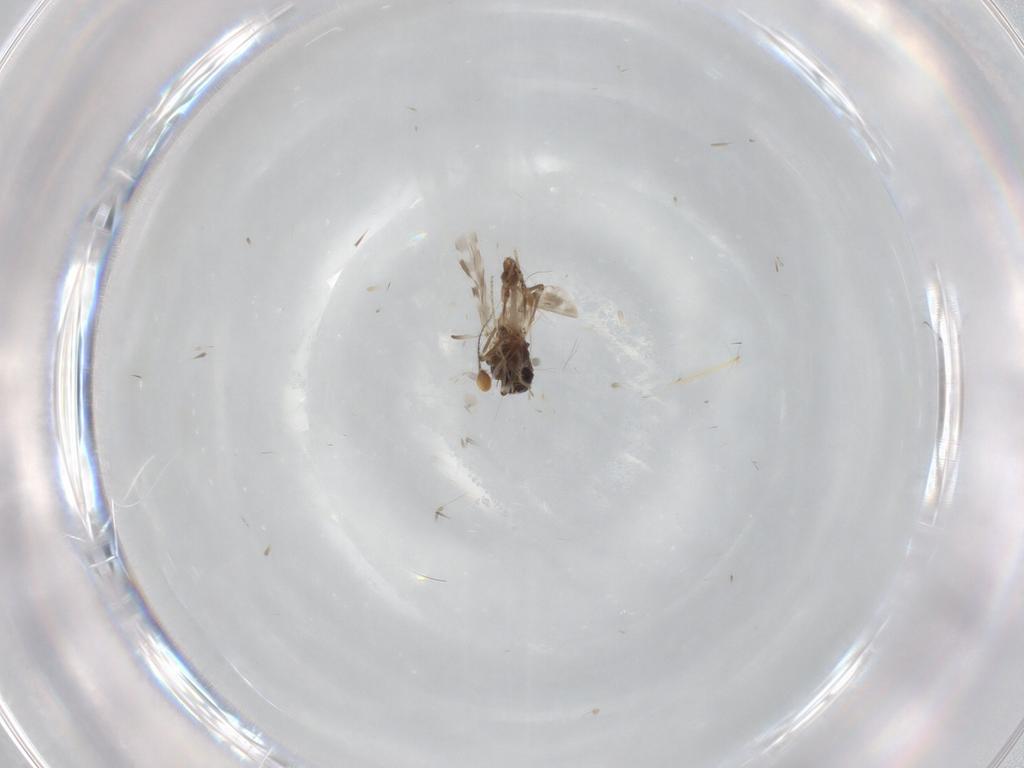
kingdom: Animalia
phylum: Arthropoda
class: Insecta
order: Diptera
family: Ceratopogonidae
